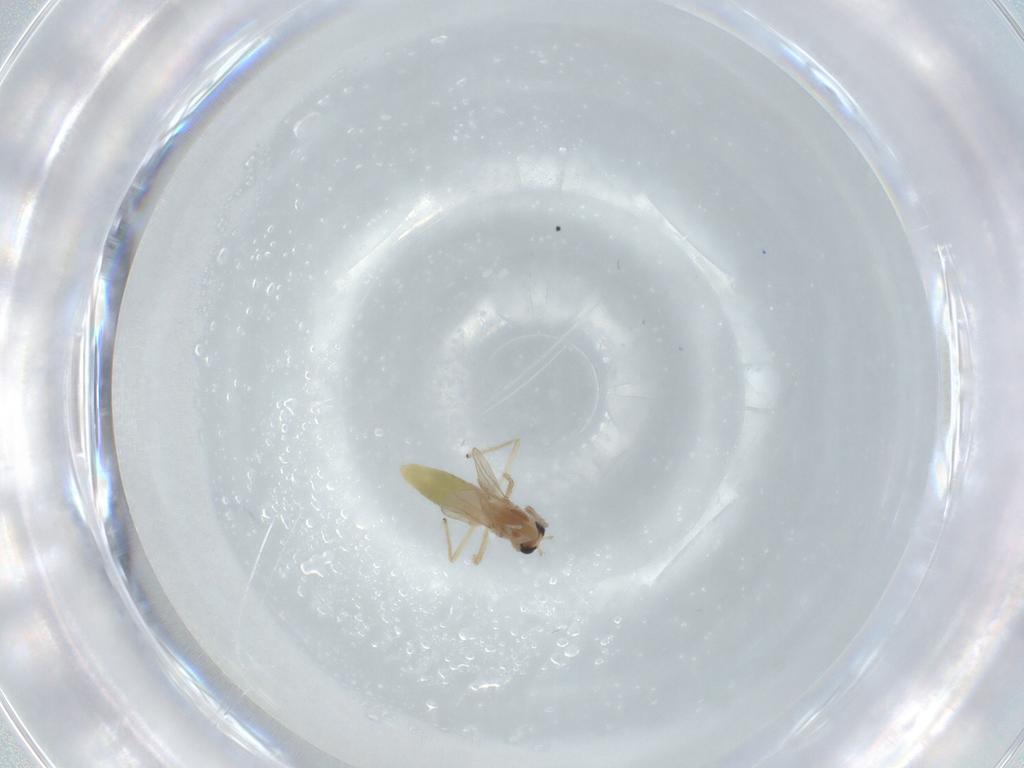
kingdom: Animalia
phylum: Arthropoda
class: Insecta
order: Diptera
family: Chironomidae
